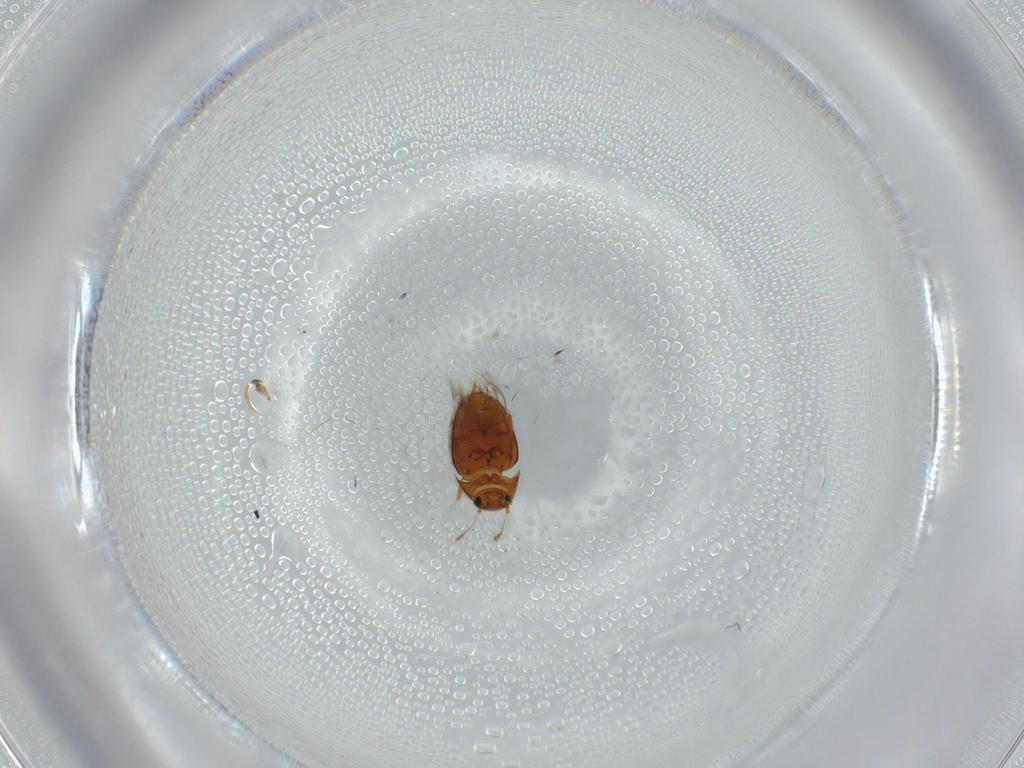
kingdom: Animalia
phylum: Arthropoda
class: Insecta
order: Coleoptera
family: Ptiliidae
